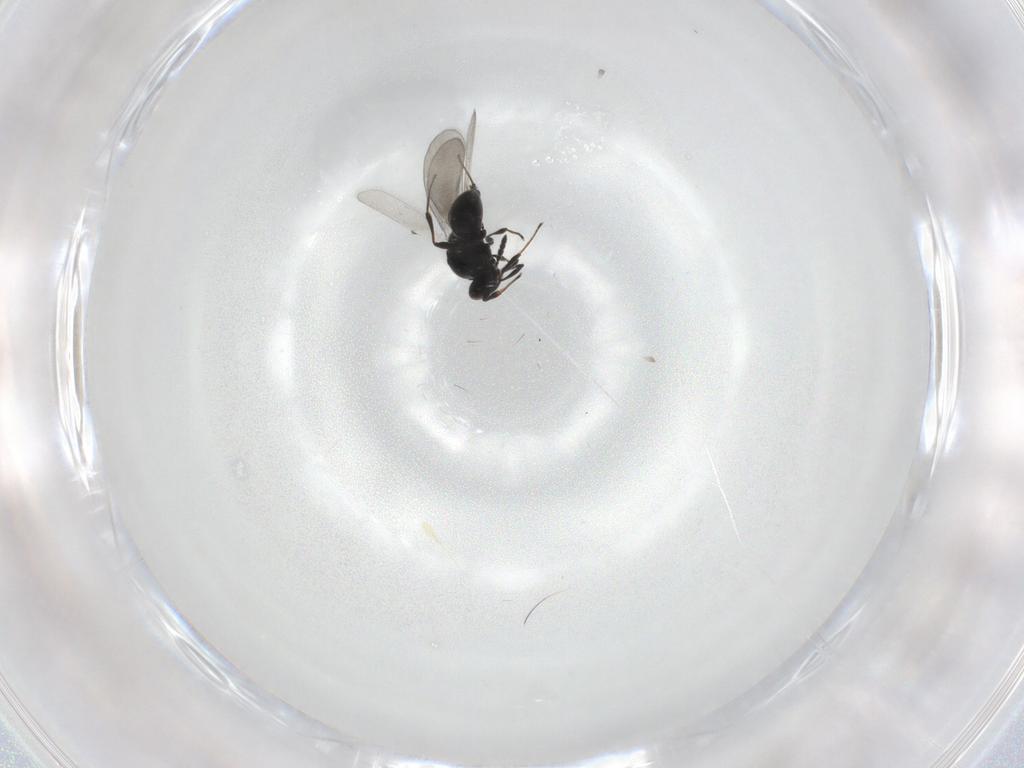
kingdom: Animalia
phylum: Arthropoda
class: Insecta
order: Hymenoptera
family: Platygastridae
